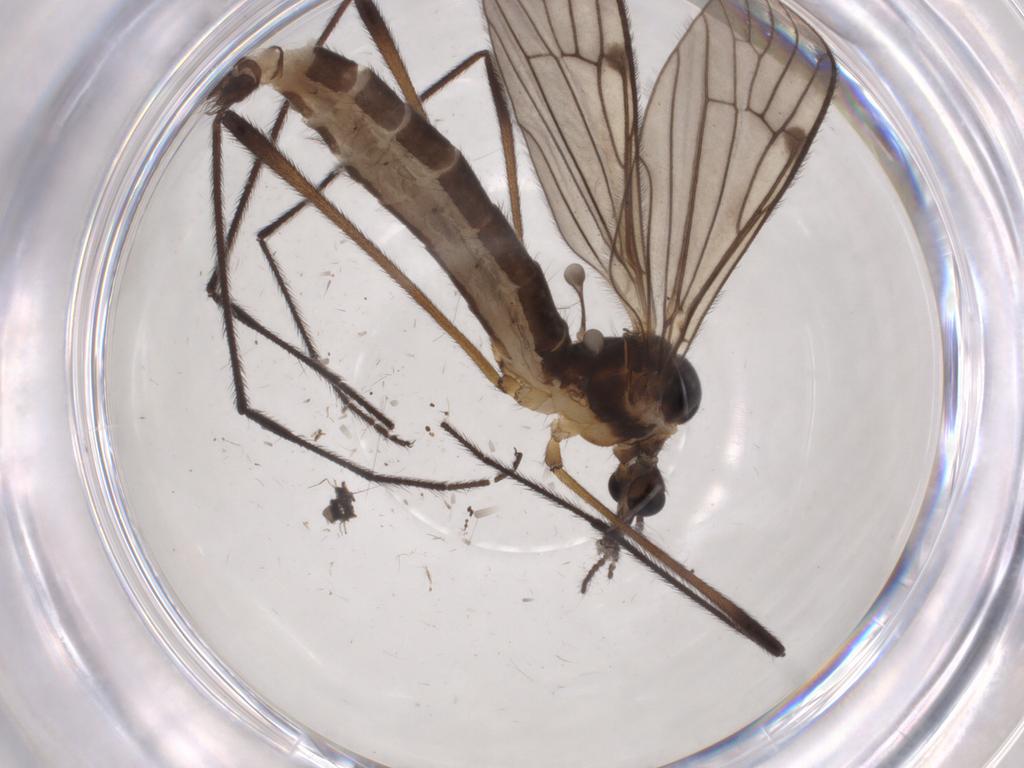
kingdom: Animalia
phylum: Arthropoda
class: Insecta
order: Diptera
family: Limoniidae
